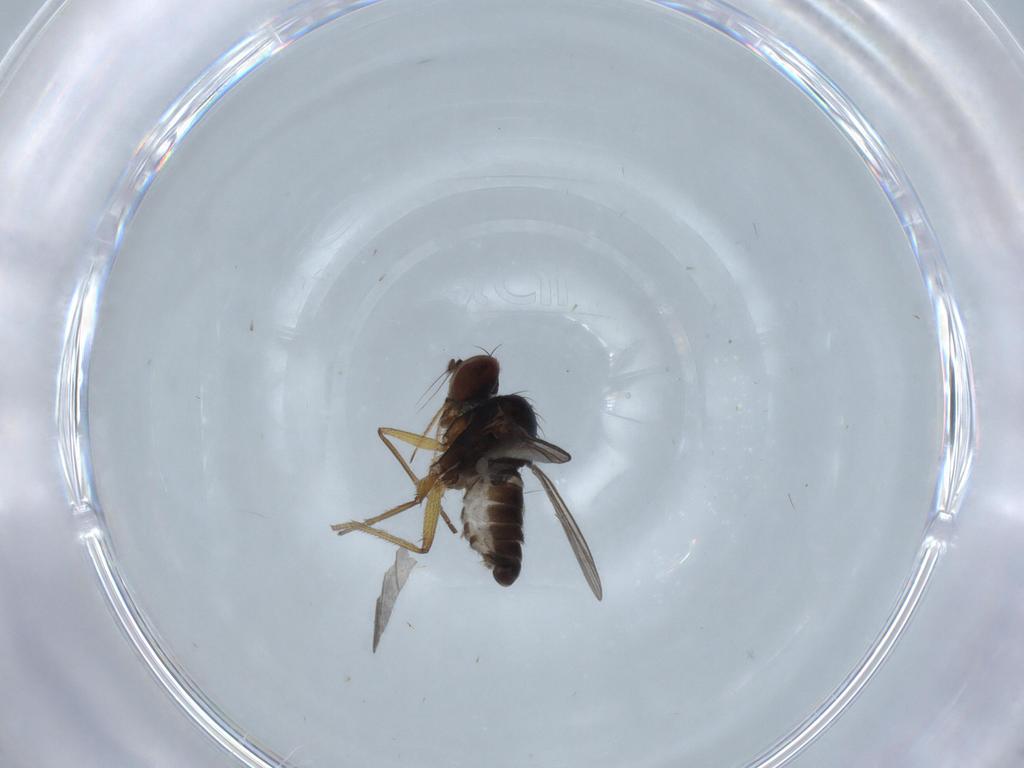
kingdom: Animalia
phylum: Arthropoda
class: Insecta
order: Diptera
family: Dolichopodidae
